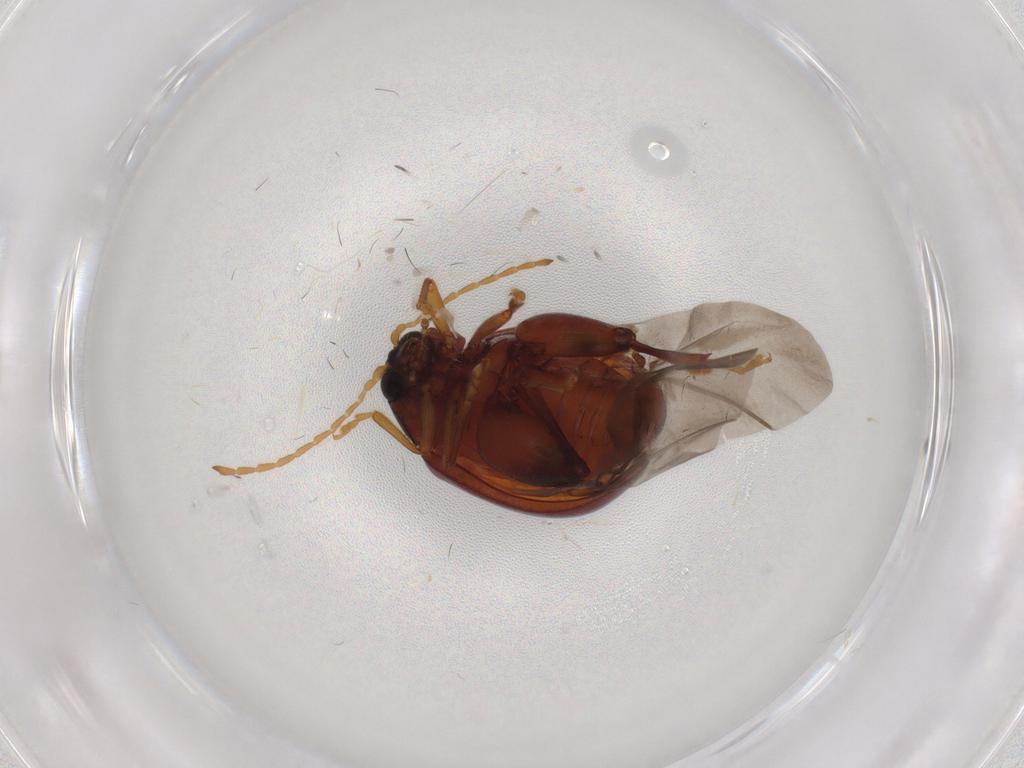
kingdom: Animalia
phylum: Arthropoda
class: Insecta
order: Coleoptera
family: Chrysomelidae
